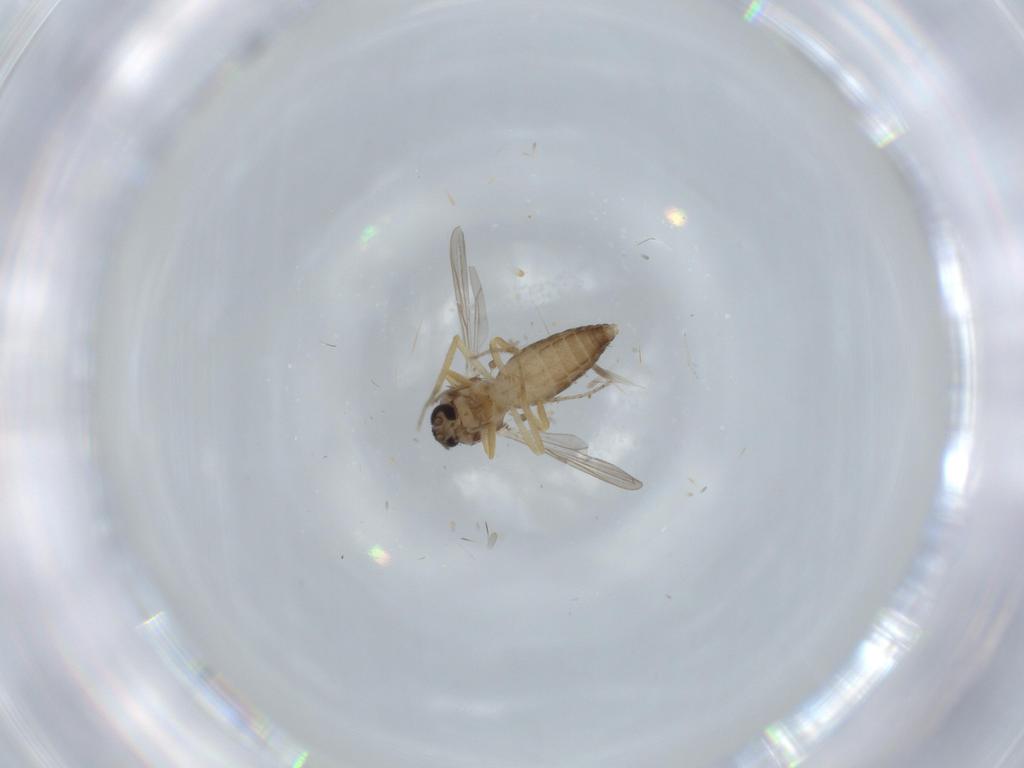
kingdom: Animalia
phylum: Arthropoda
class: Insecta
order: Diptera
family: Ceratopogonidae
